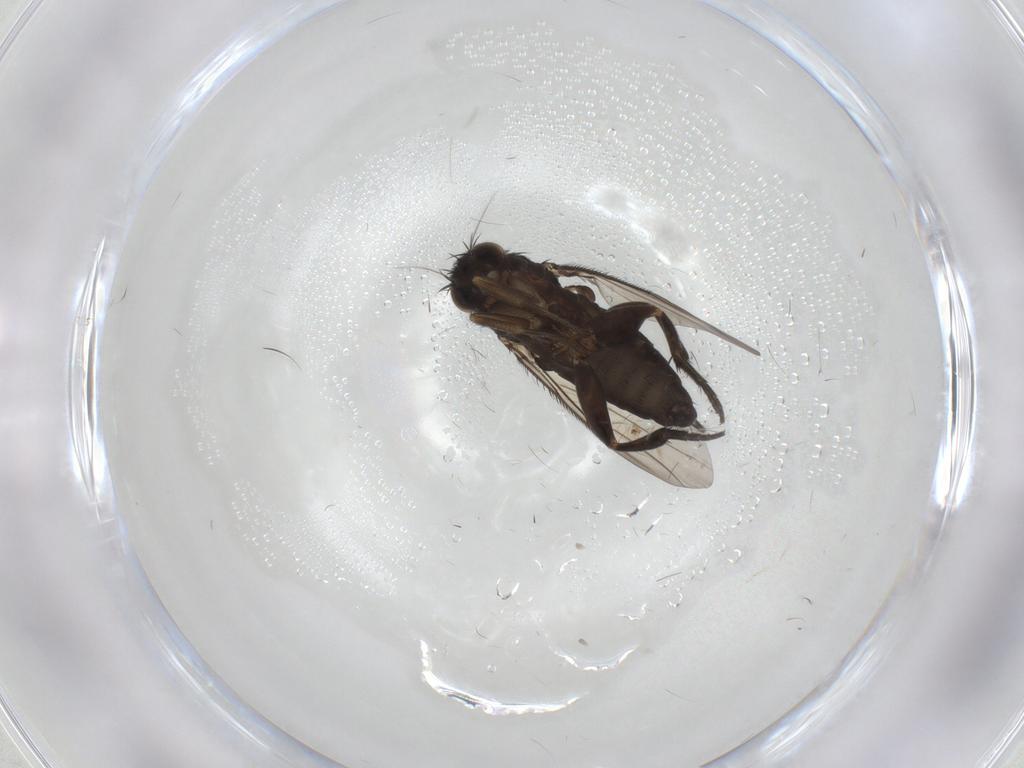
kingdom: Animalia
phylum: Arthropoda
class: Insecta
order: Diptera
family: Phoridae
